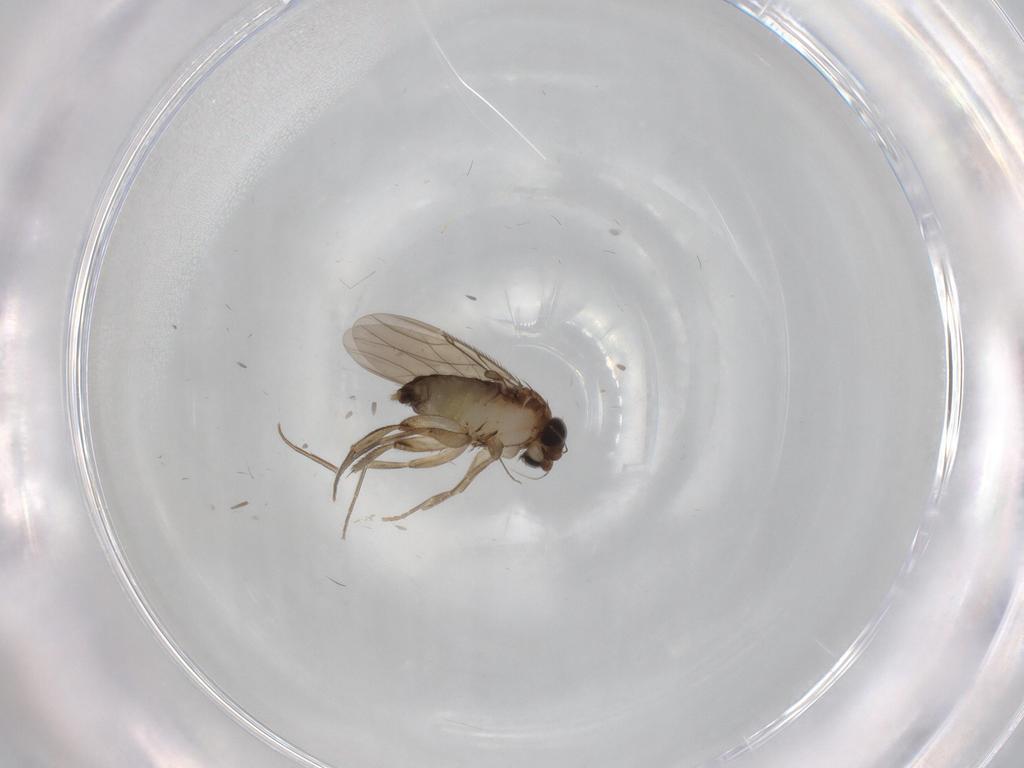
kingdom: Animalia
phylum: Arthropoda
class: Insecta
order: Diptera
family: Phoridae
